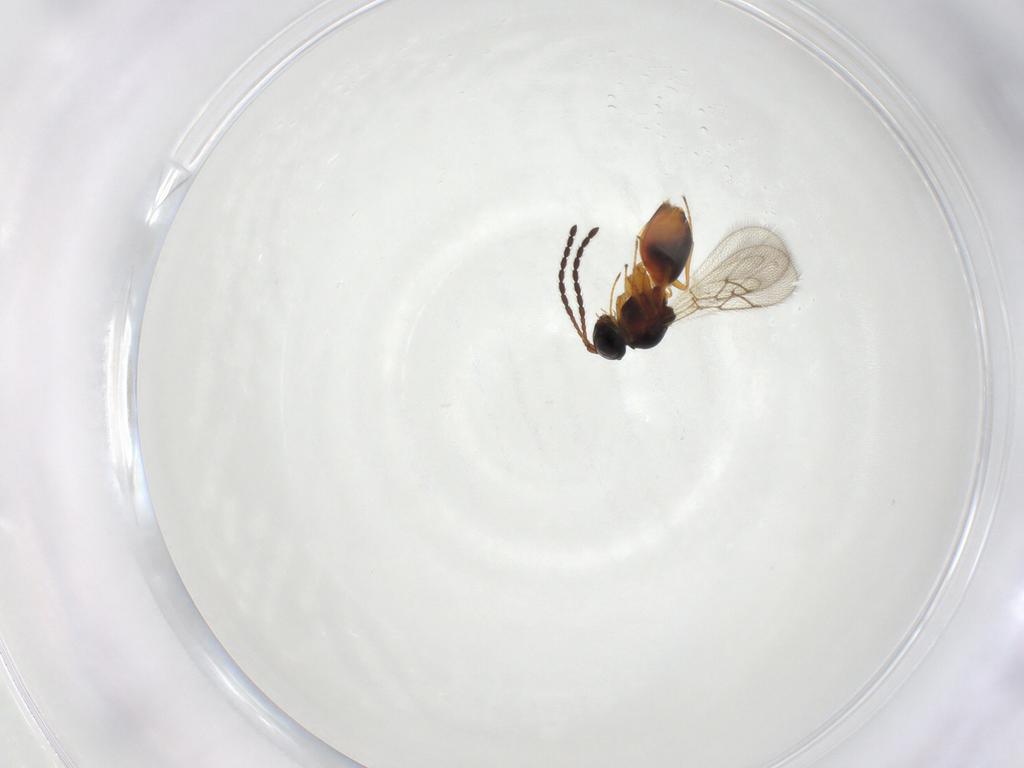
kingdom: Animalia
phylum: Arthropoda
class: Insecta
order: Hymenoptera
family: Figitidae
